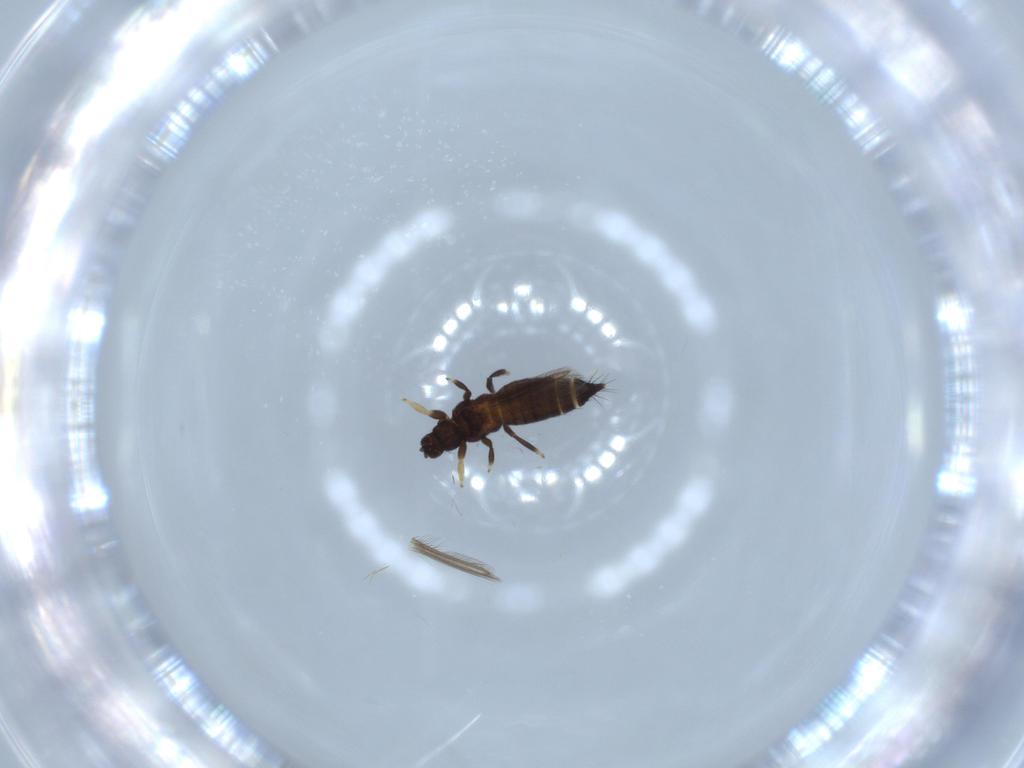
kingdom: Animalia
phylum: Arthropoda
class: Insecta
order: Thysanoptera
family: Thripidae
